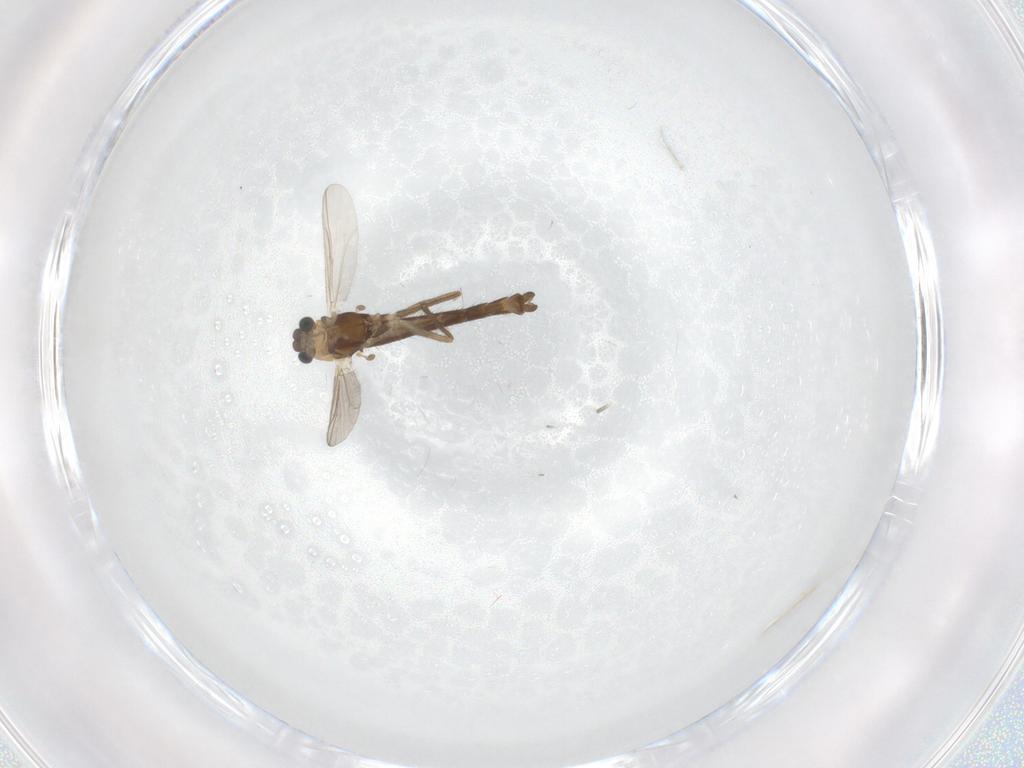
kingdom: Animalia
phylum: Arthropoda
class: Insecta
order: Diptera
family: Chironomidae
